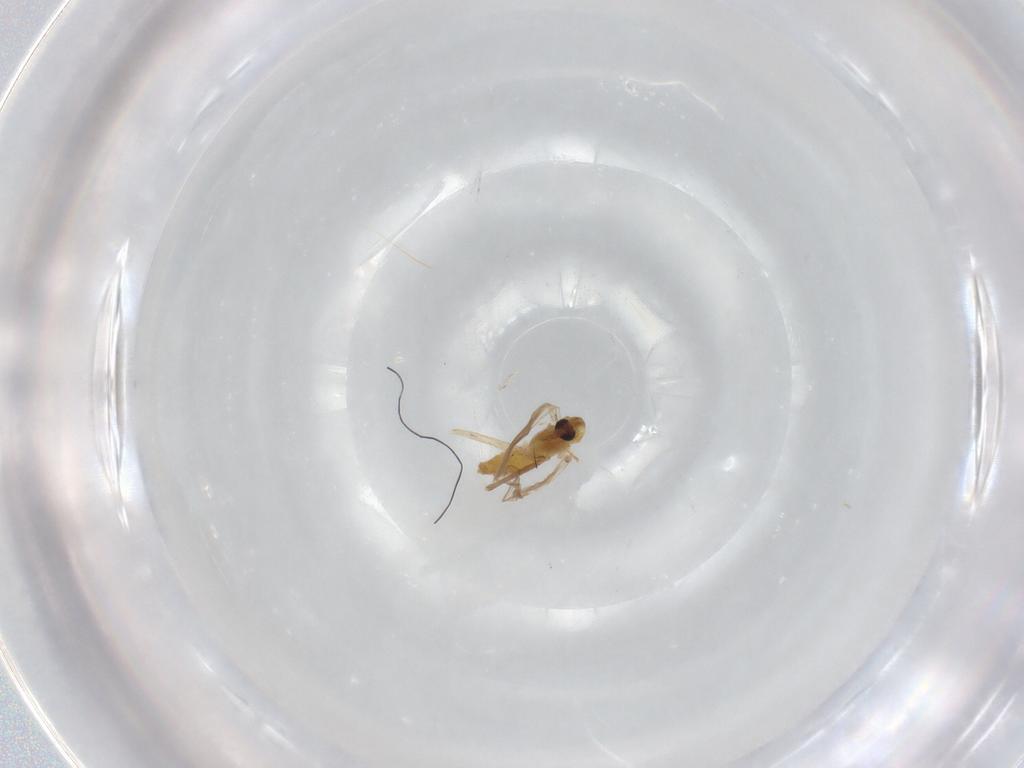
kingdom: Animalia
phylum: Arthropoda
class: Insecta
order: Diptera
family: Glossinidae
